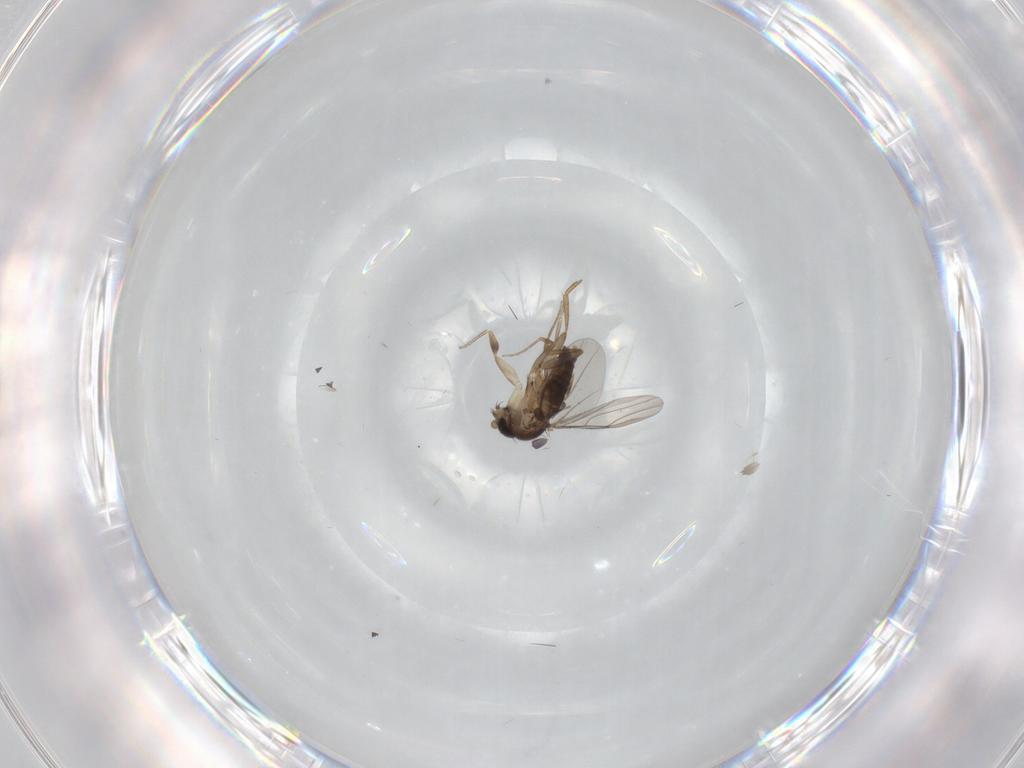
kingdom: Animalia
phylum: Arthropoda
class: Insecta
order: Diptera
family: Phoridae
